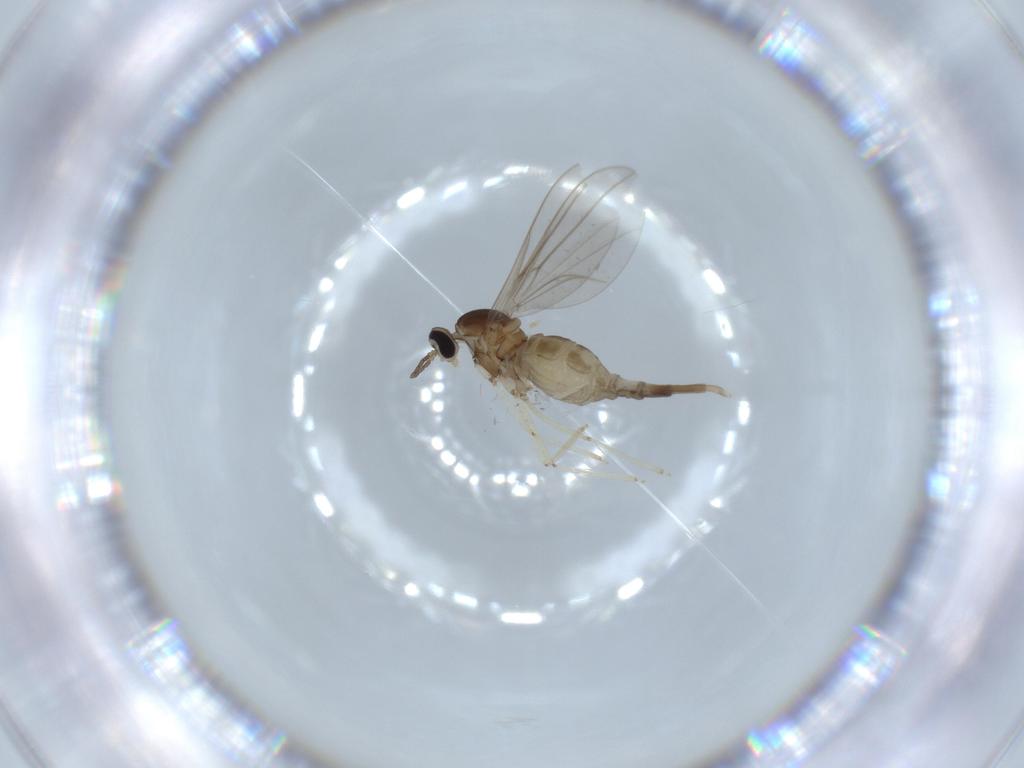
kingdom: Animalia
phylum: Arthropoda
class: Insecta
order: Diptera
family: Cecidomyiidae
